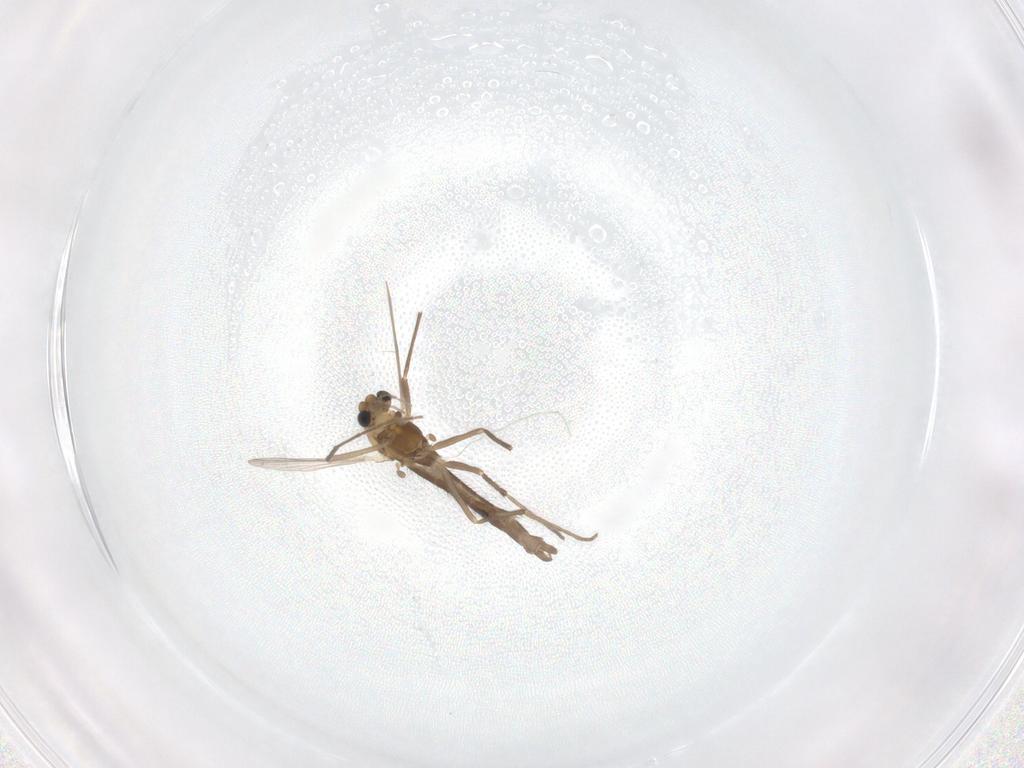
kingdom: Animalia
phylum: Arthropoda
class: Insecta
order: Diptera
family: Chironomidae
